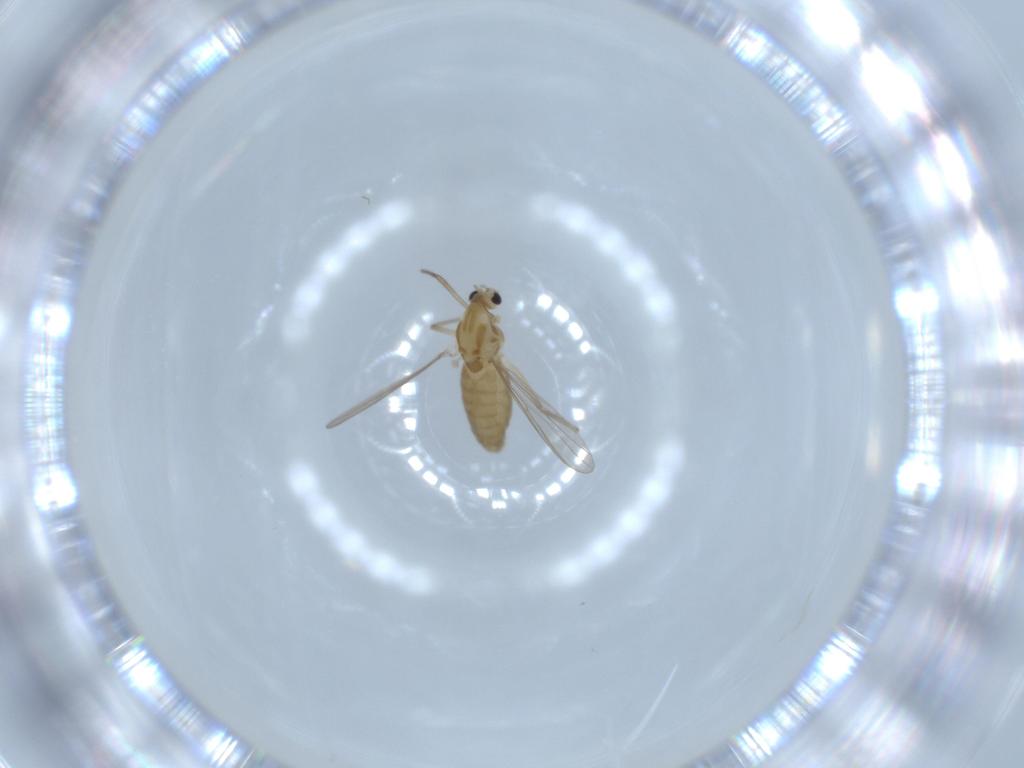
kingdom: Animalia
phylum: Arthropoda
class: Insecta
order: Diptera
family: Chironomidae
